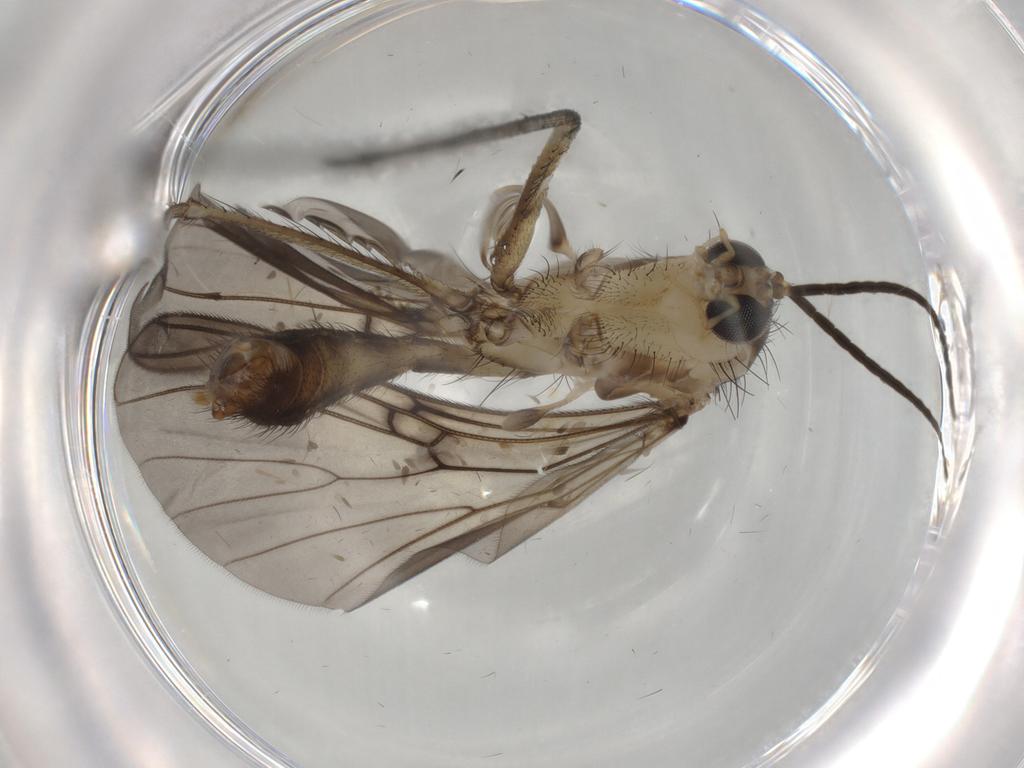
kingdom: Animalia
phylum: Arthropoda
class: Insecta
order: Diptera
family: Mycetophilidae
